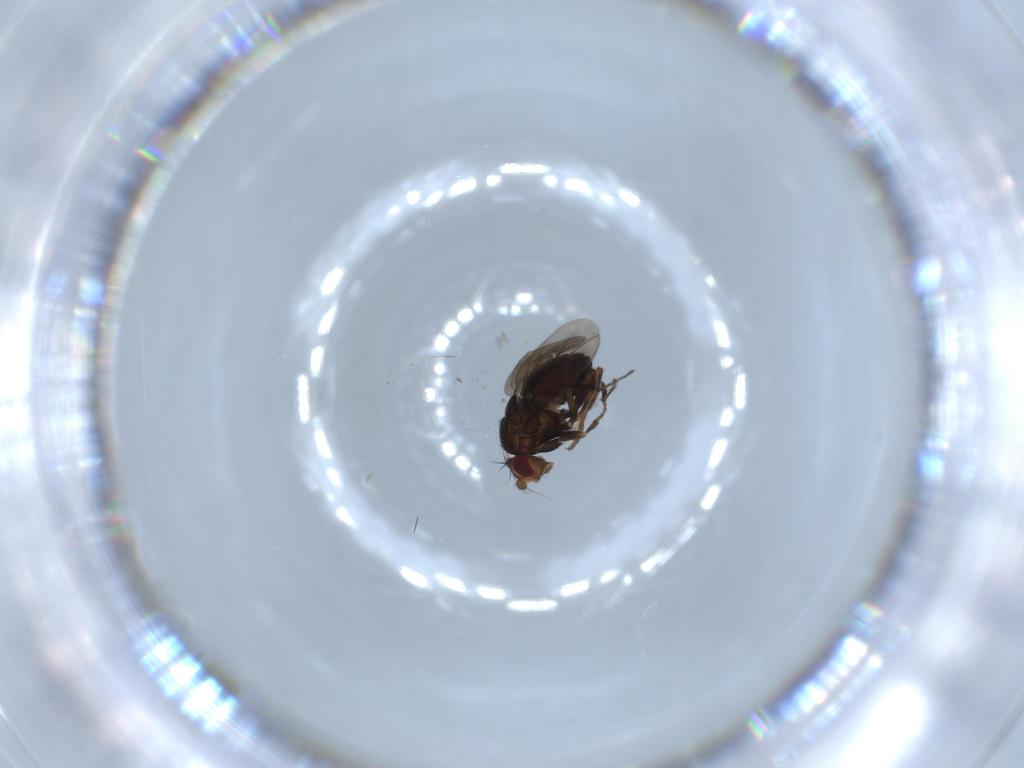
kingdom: Animalia
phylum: Arthropoda
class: Insecta
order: Diptera
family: Sphaeroceridae
